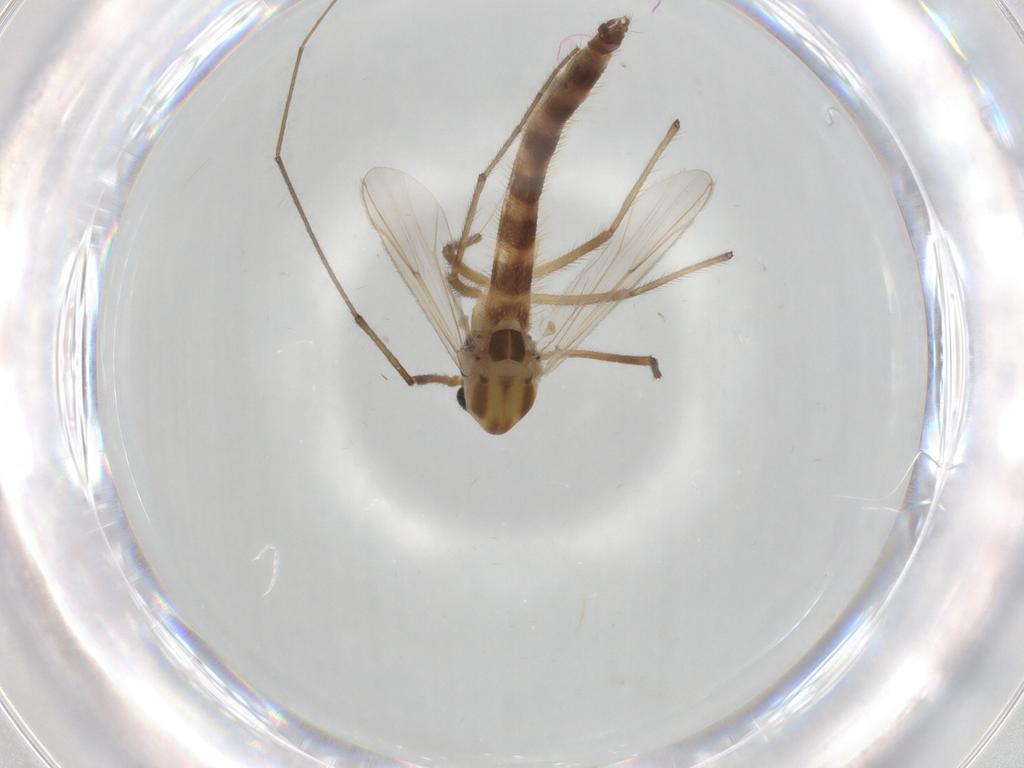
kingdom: Animalia
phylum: Arthropoda
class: Insecta
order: Diptera
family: Chironomidae
